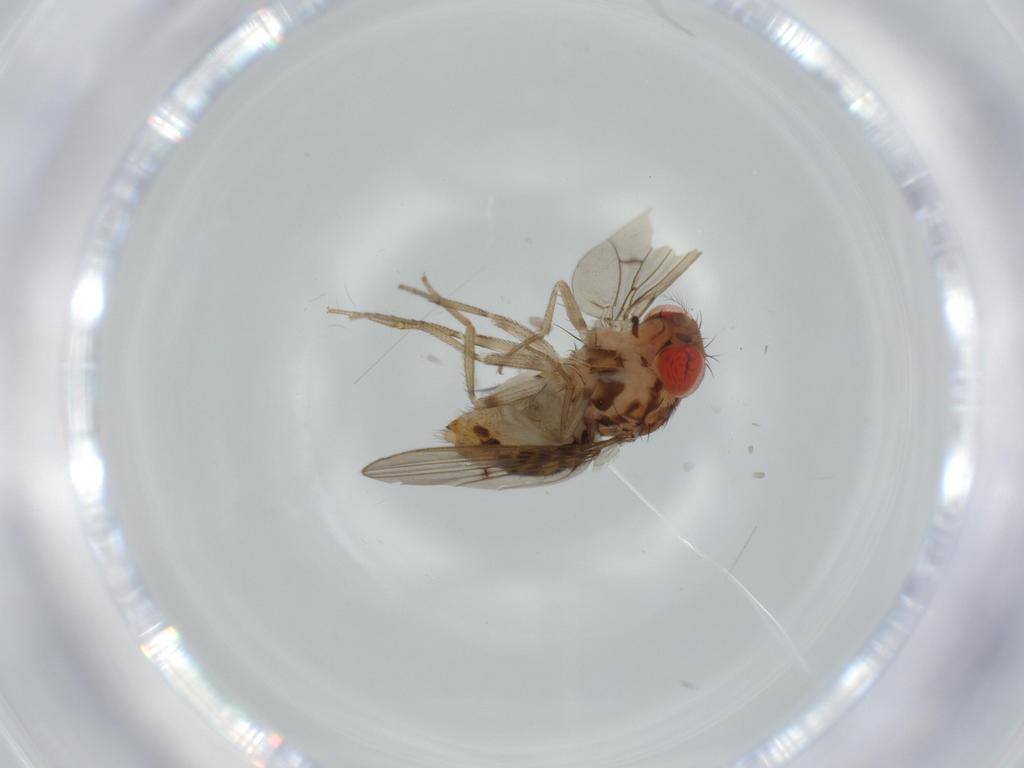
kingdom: Animalia
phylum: Arthropoda
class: Insecta
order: Diptera
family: Drosophilidae
